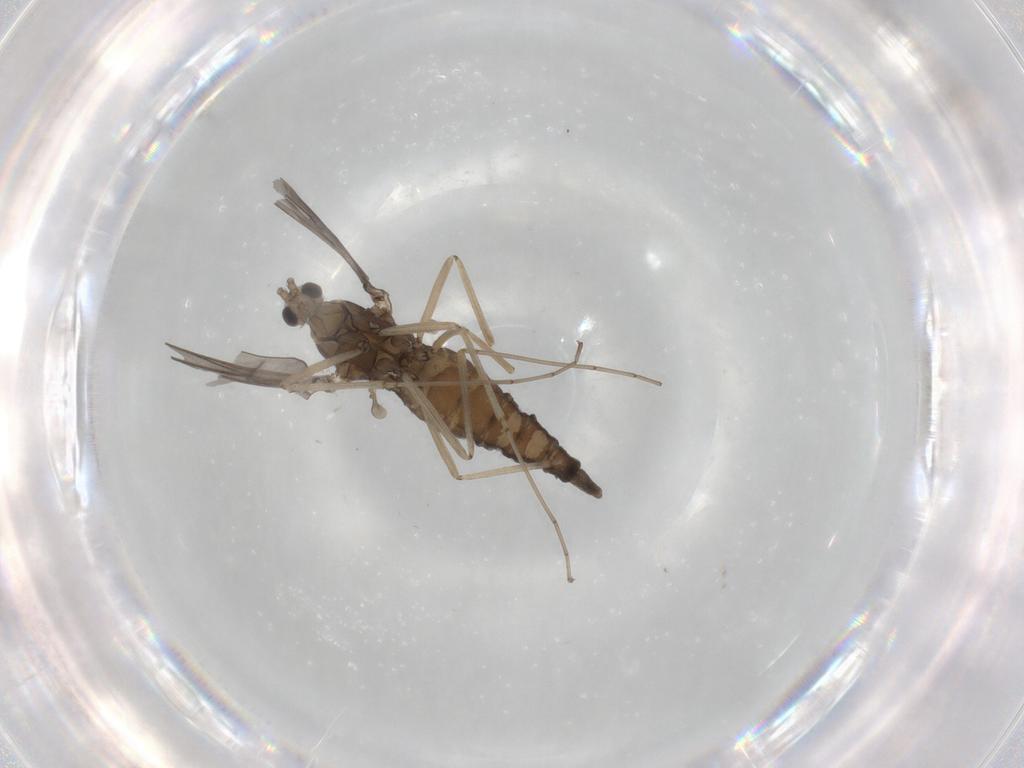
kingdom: Animalia
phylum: Arthropoda
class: Insecta
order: Diptera
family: Cecidomyiidae
